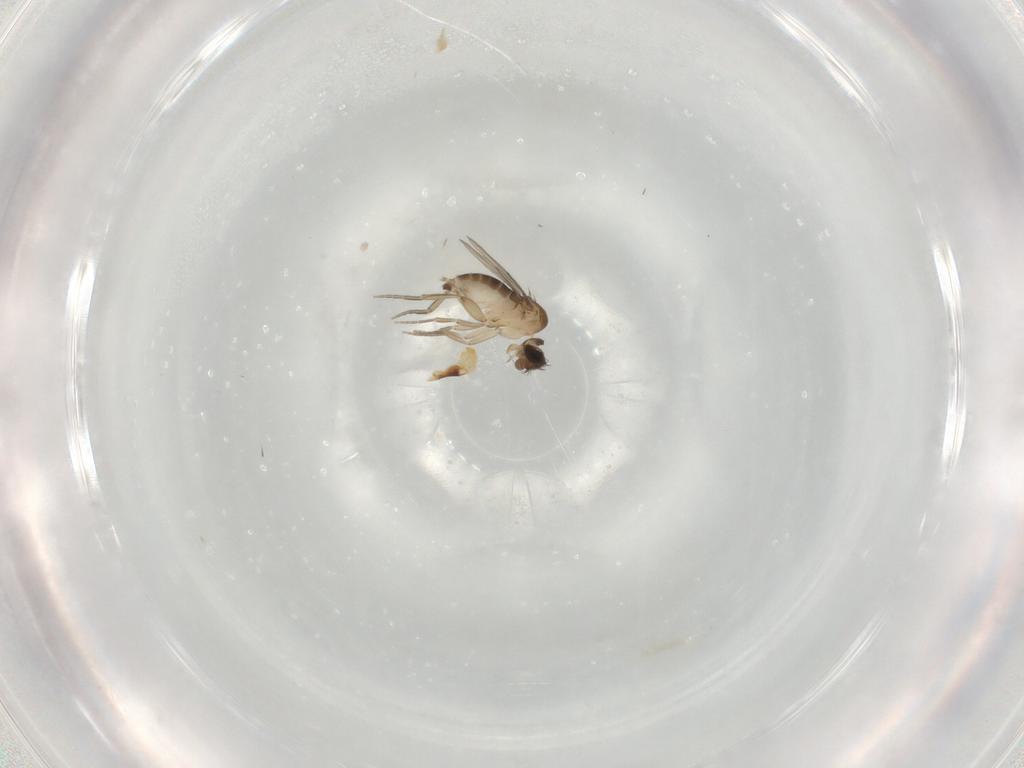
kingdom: Animalia
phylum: Arthropoda
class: Insecta
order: Diptera
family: Phoridae
